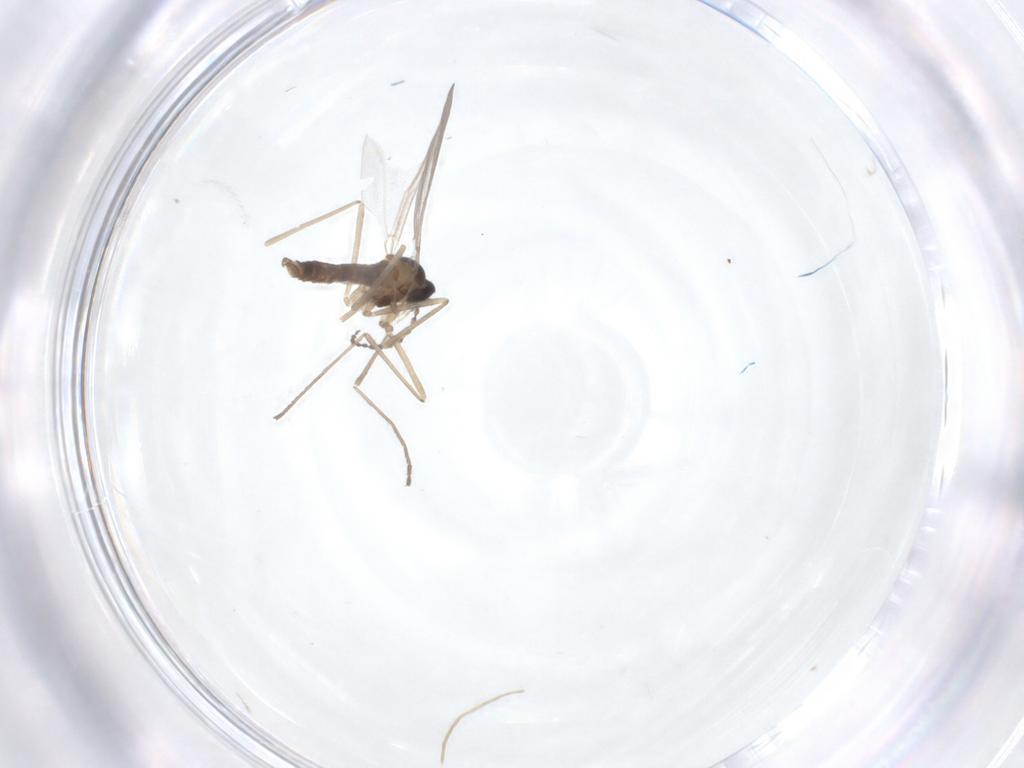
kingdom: Animalia
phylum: Arthropoda
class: Insecta
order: Diptera
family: Cecidomyiidae
